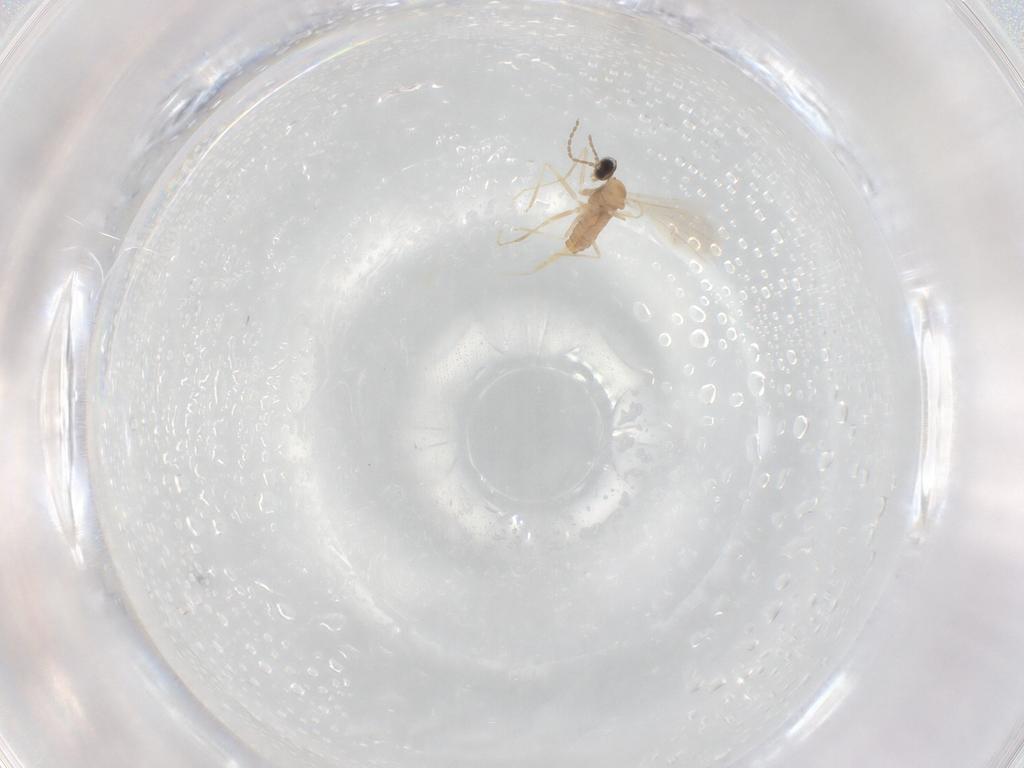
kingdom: Animalia
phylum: Arthropoda
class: Insecta
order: Diptera
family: Cecidomyiidae
